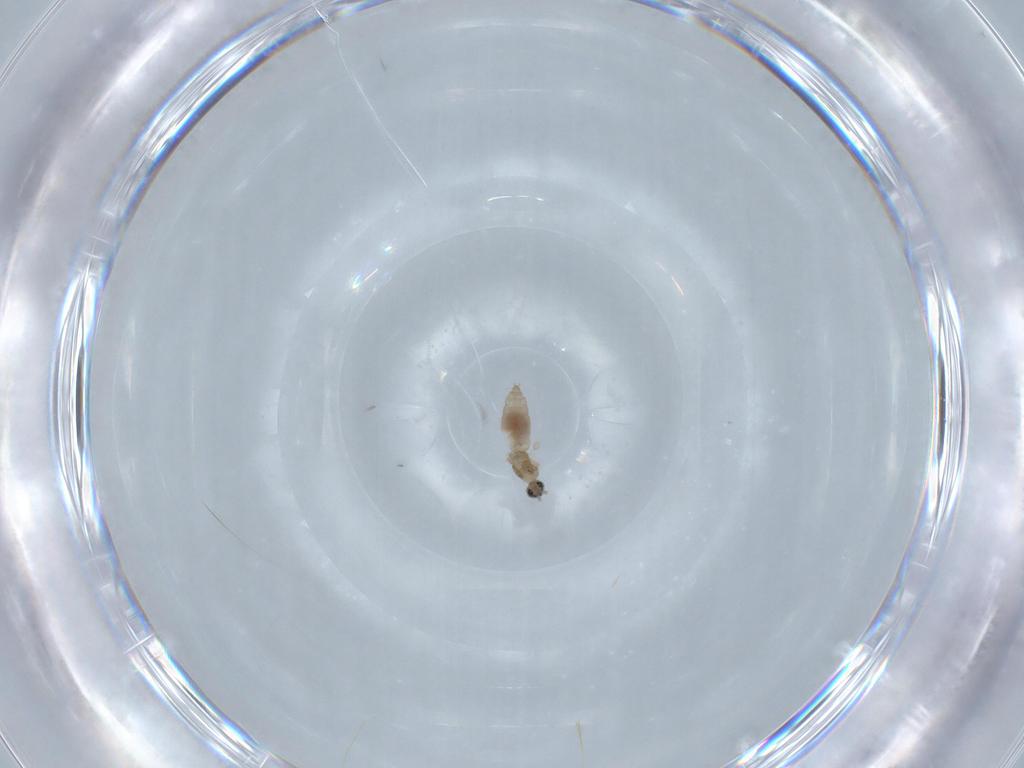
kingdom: Animalia
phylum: Arthropoda
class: Insecta
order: Diptera
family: Cecidomyiidae
